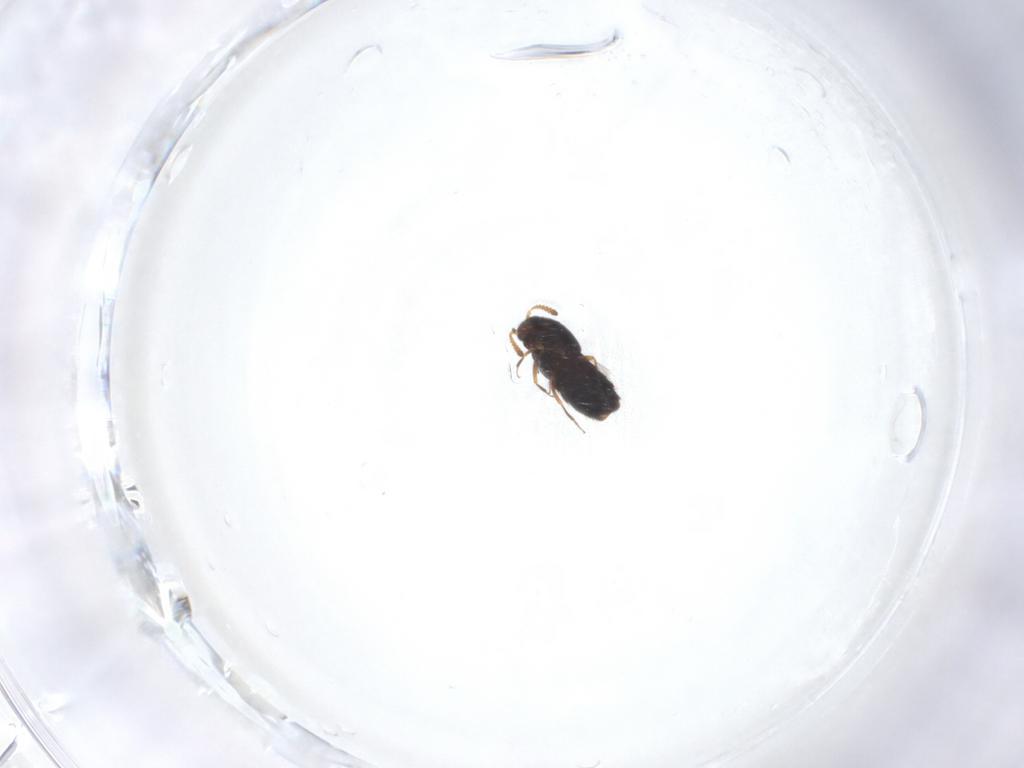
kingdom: Animalia
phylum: Arthropoda
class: Insecta
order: Coleoptera
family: Staphylinidae
